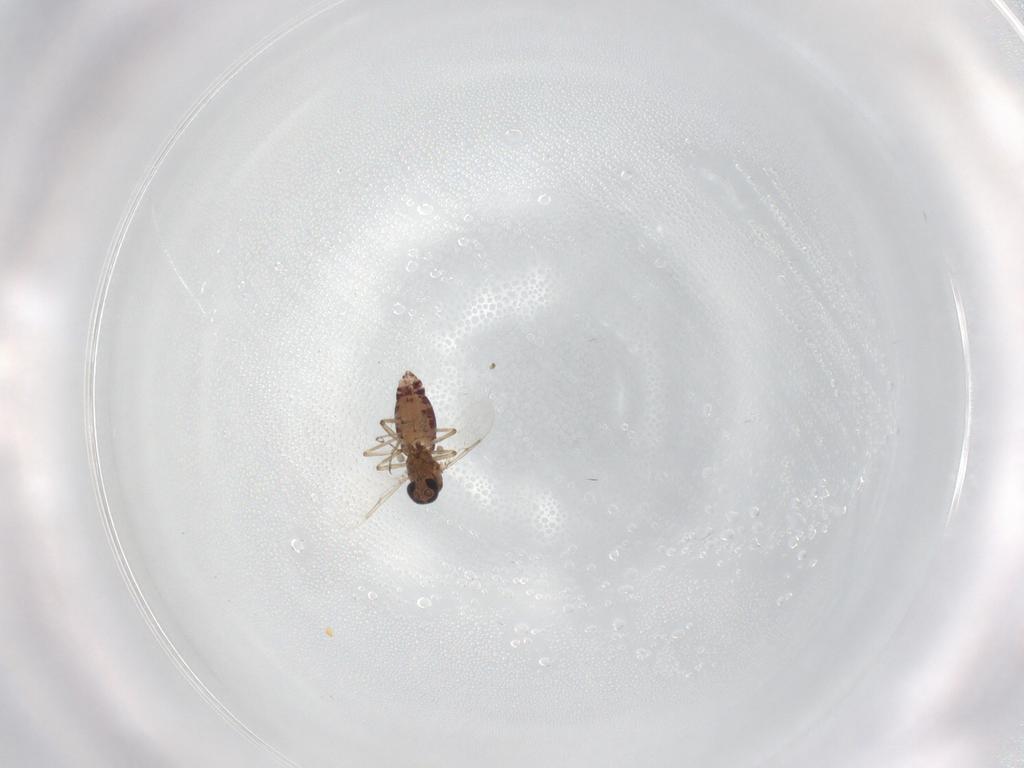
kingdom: Animalia
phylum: Arthropoda
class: Insecta
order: Diptera
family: Ceratopogonidae
